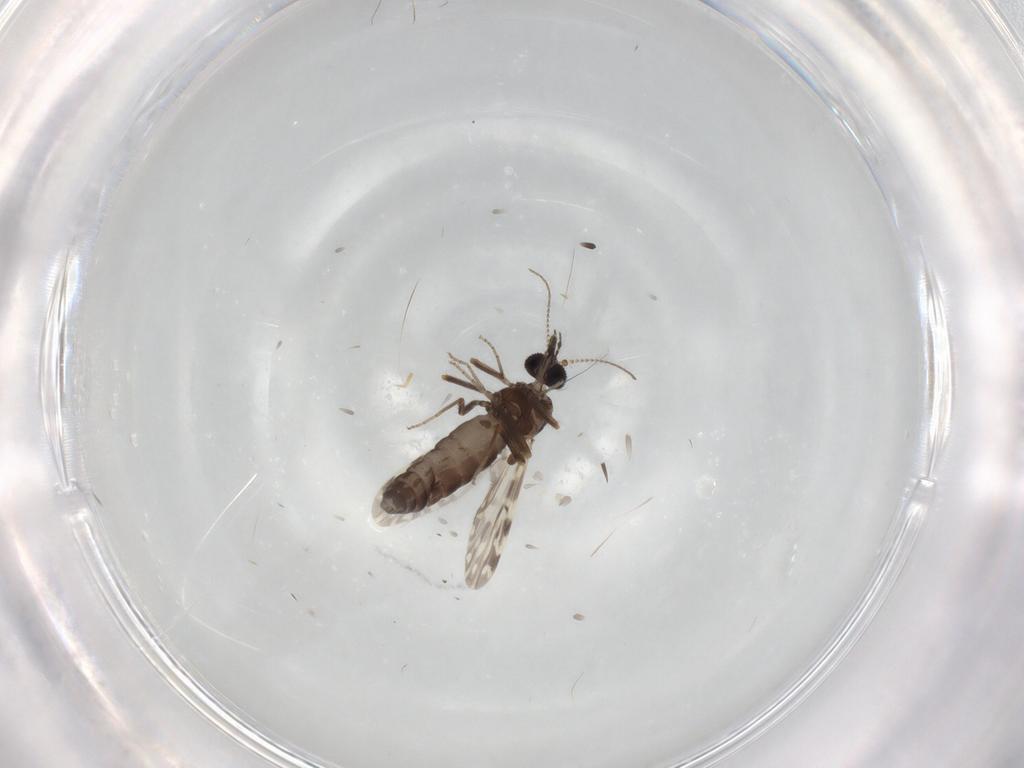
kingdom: Animalia
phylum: Arthropoda
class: Insecta
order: Diptera
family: Ceratopogonidae
